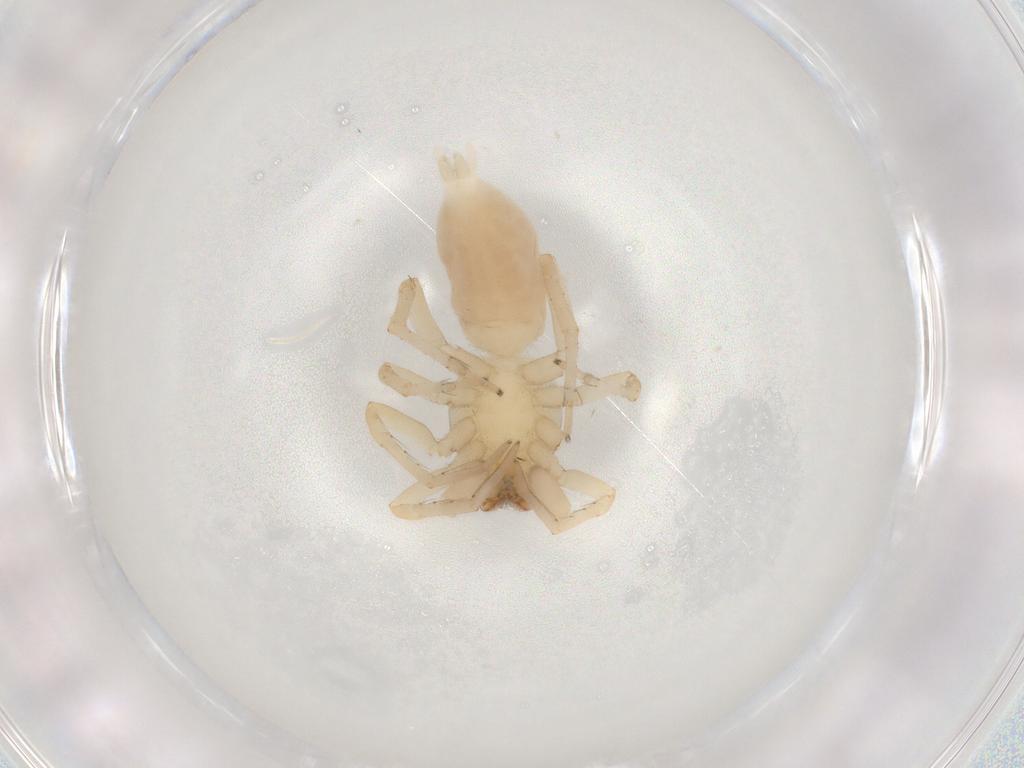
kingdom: Animalia
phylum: Arthropoda
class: Arachnida
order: Araneae
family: Clubionidae
